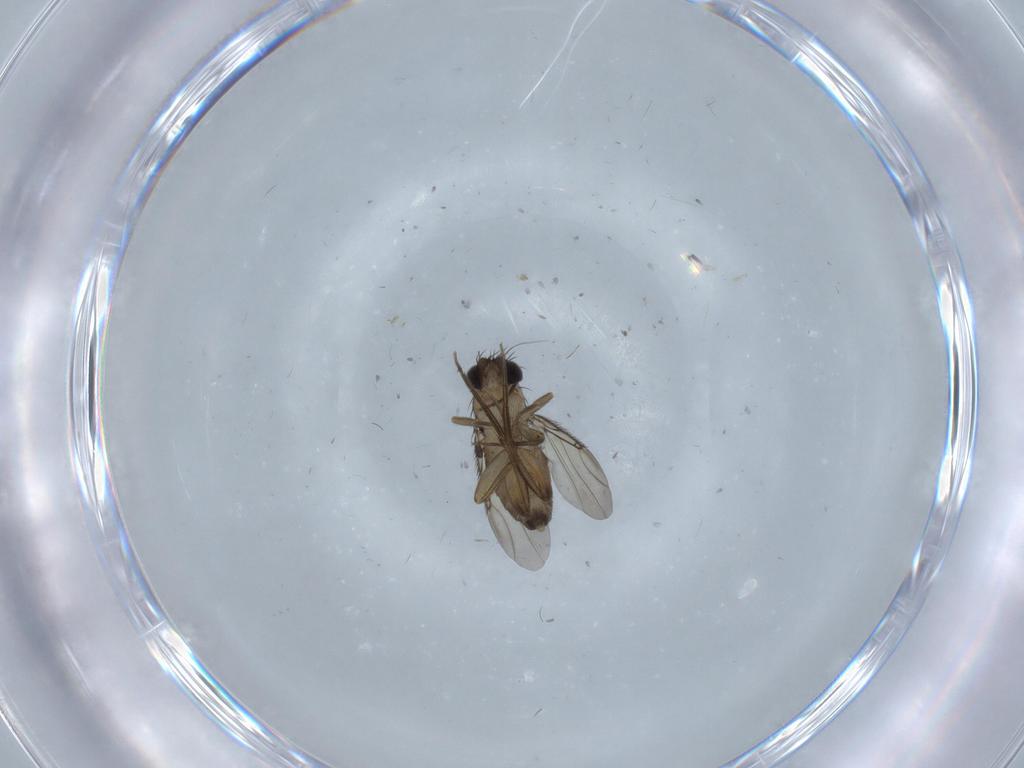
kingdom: Animalia
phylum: Arthropoda
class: Insecta
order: Diptera
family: Phoridae
